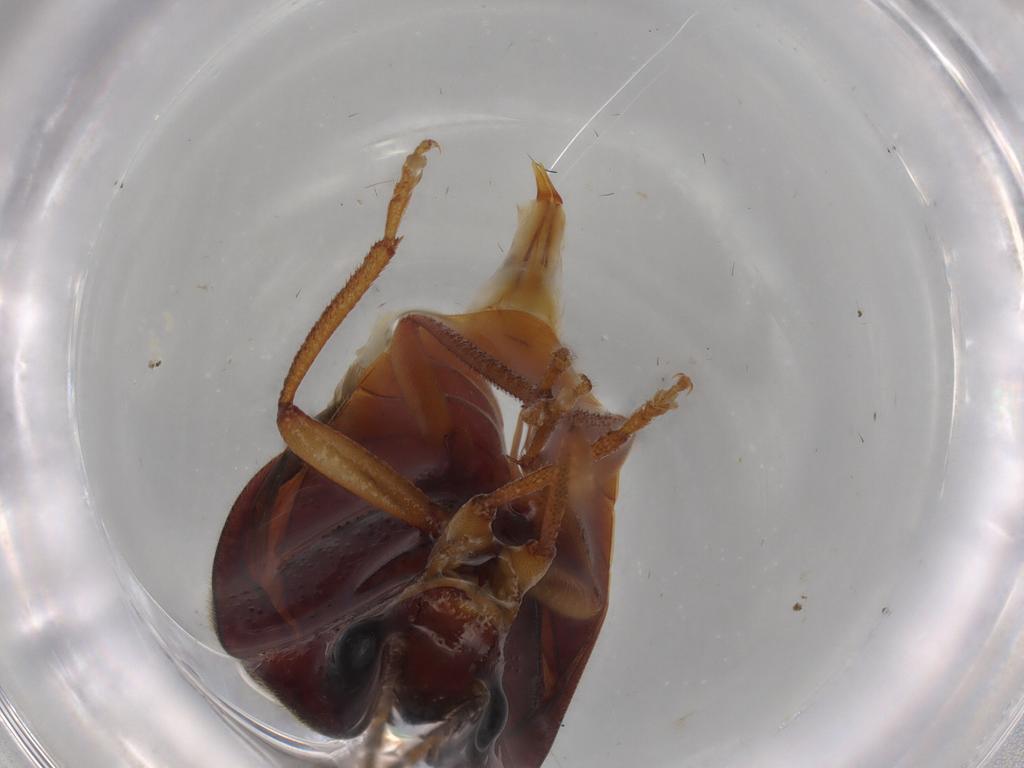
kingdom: Animalia
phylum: Arthropoda
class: Insecta
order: Coleoptera
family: Ptilodactylidae
